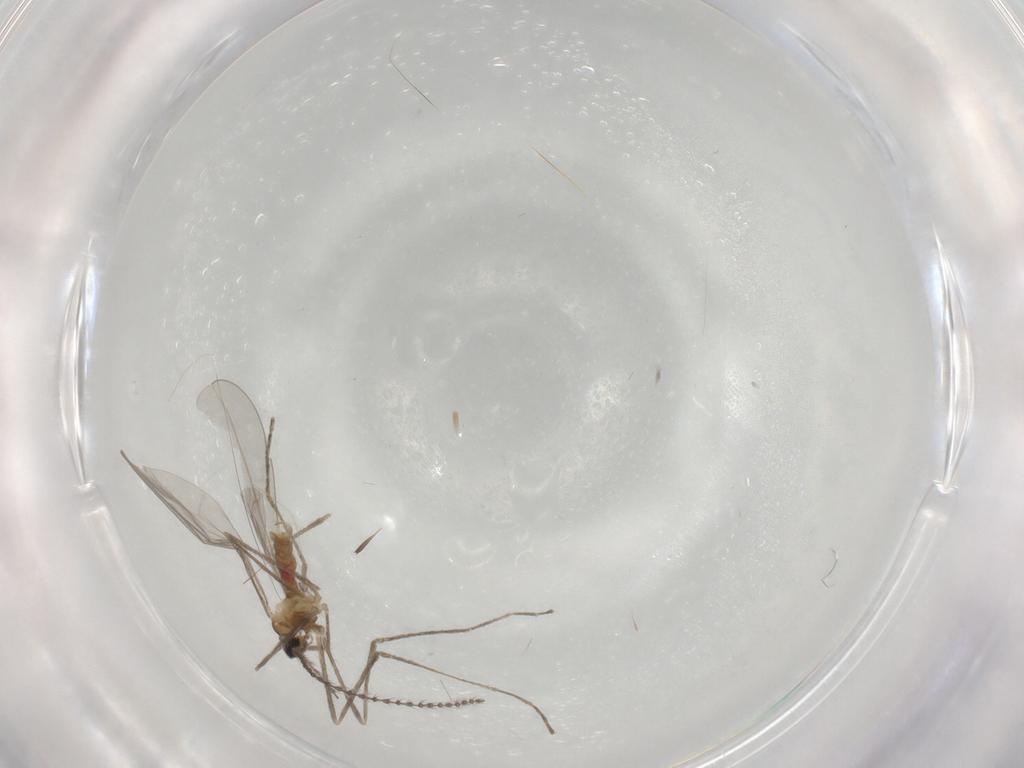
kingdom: Animalia
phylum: Arthropoda
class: Insecta
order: Diptera
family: Cecidomyiidae
